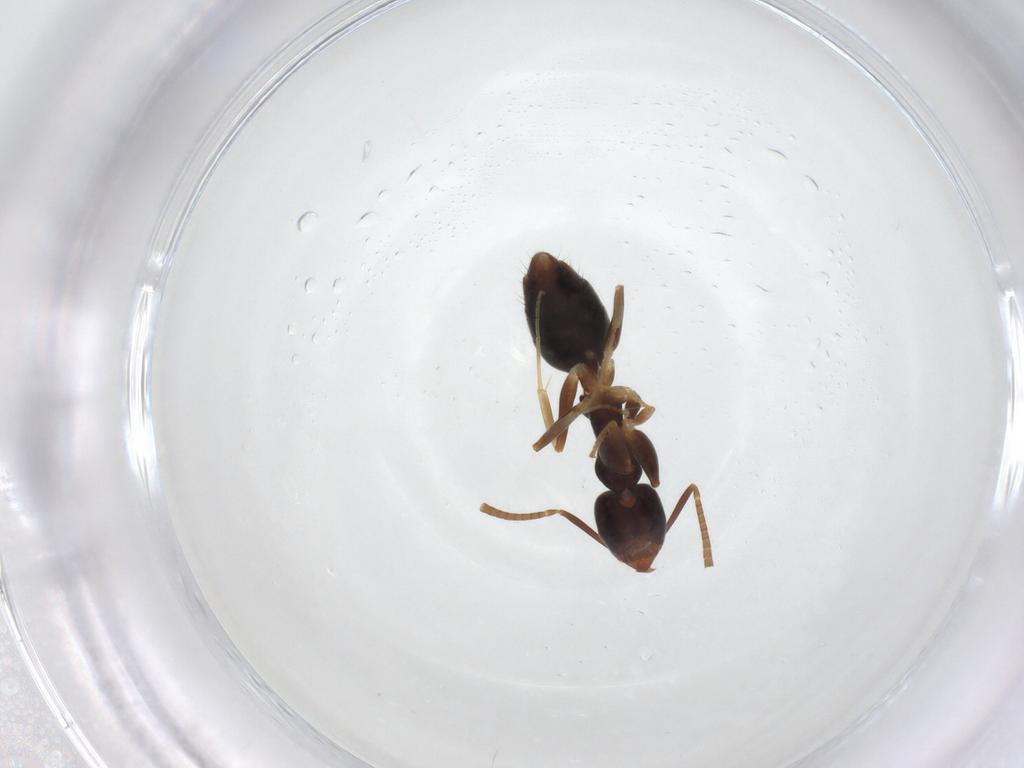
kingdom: Animalia
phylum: Arthropoda
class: Insecta
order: Hymenoptera
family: Formicidae
